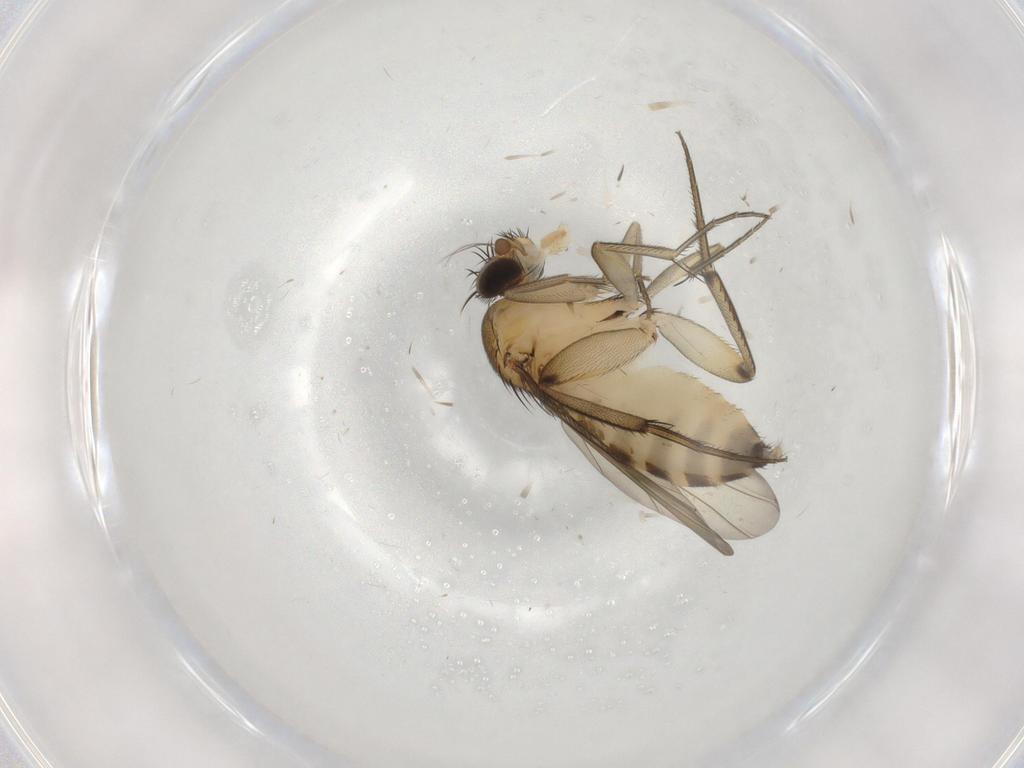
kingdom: Animalia
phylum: Arthropoda
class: Insecta
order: Diptera
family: Phoridae
